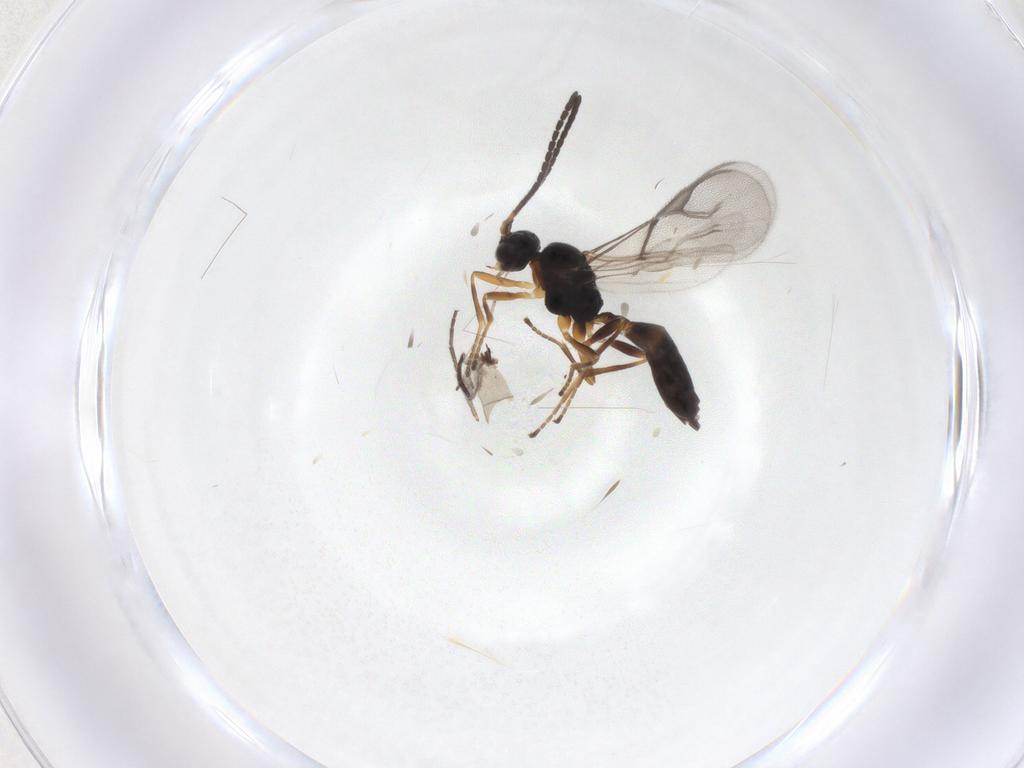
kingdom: Animalia
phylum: Arthropoda
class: Insecta
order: Hymenoptera
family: Braconidae
